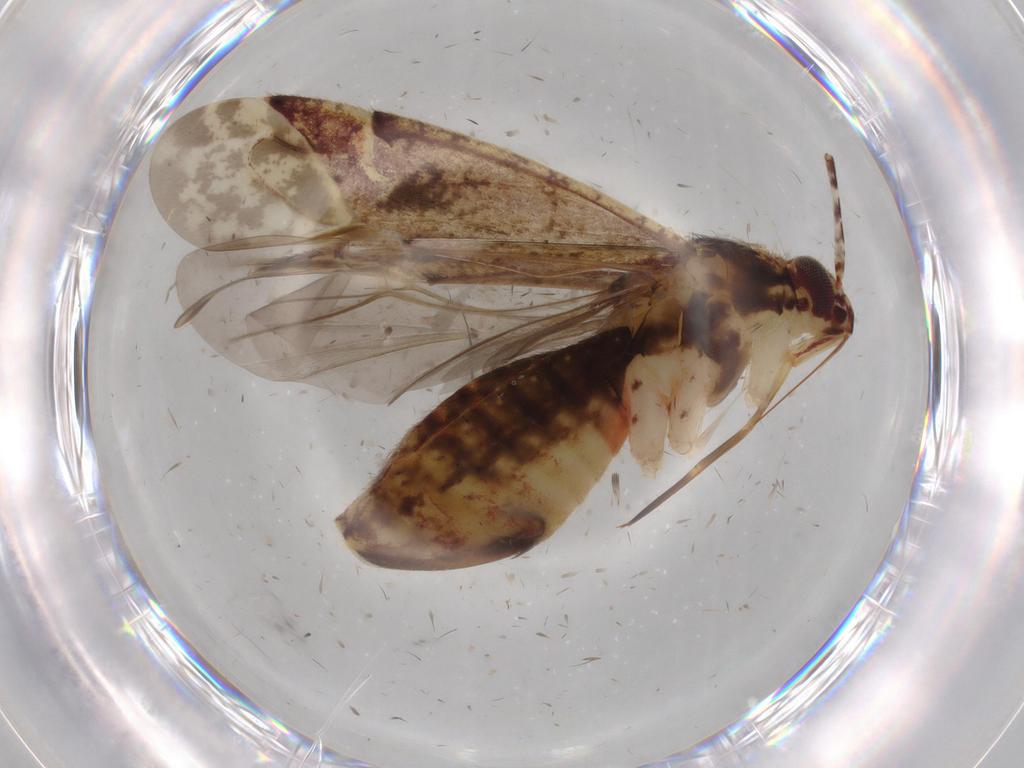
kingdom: Animalia
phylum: Arthropoda
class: Insecta
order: Hemiptera
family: Miridae
